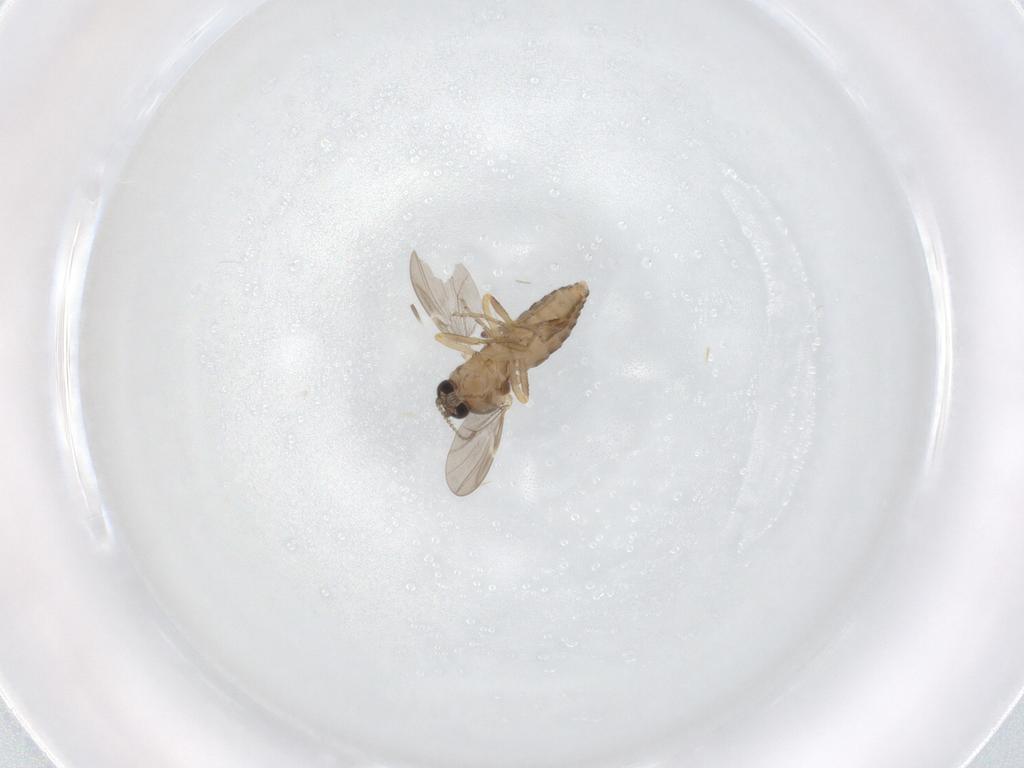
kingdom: Animalia
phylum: Arthropoda
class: Insecta
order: Diptera
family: Ceratopogonidae
